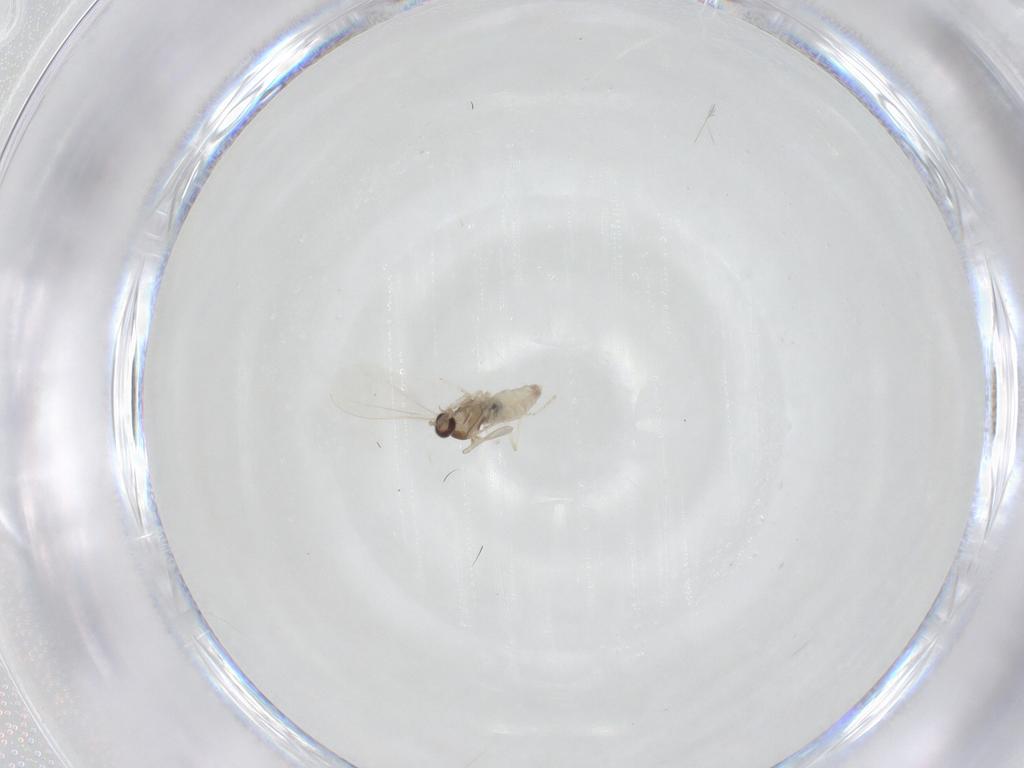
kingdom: Animalia
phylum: Arthropoda
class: Insecta
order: Diptera
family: Cecidomyiidae
